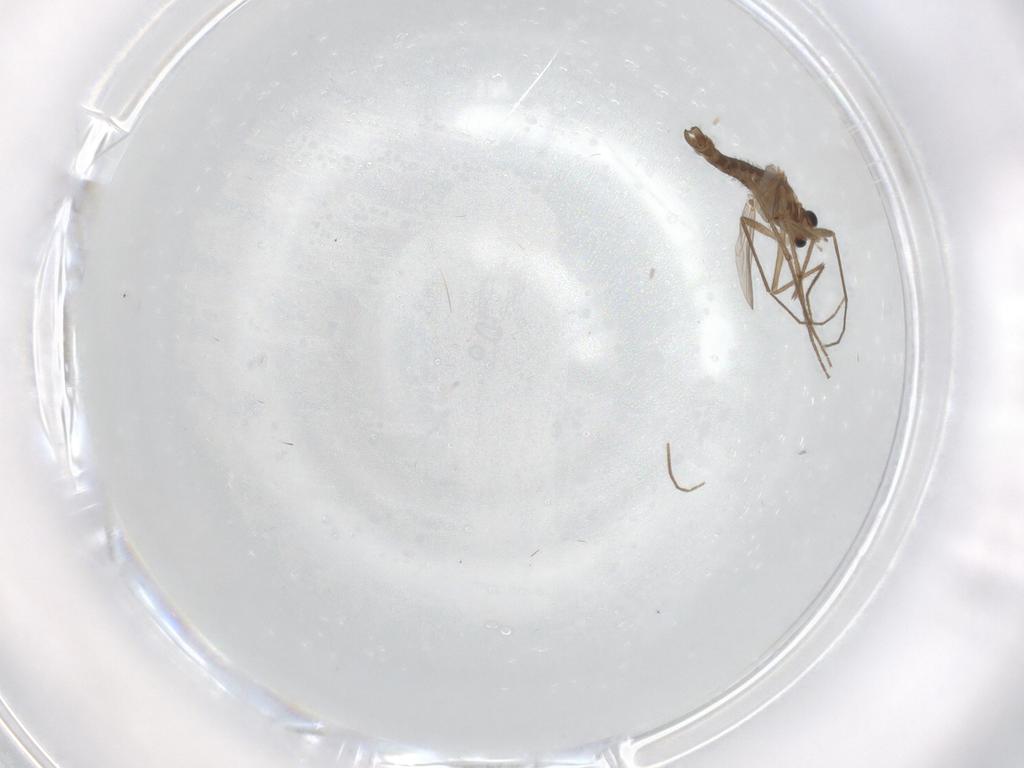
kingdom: Animalia
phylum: Arthropoda
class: Insecta
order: Diptera
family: Chironomidae
